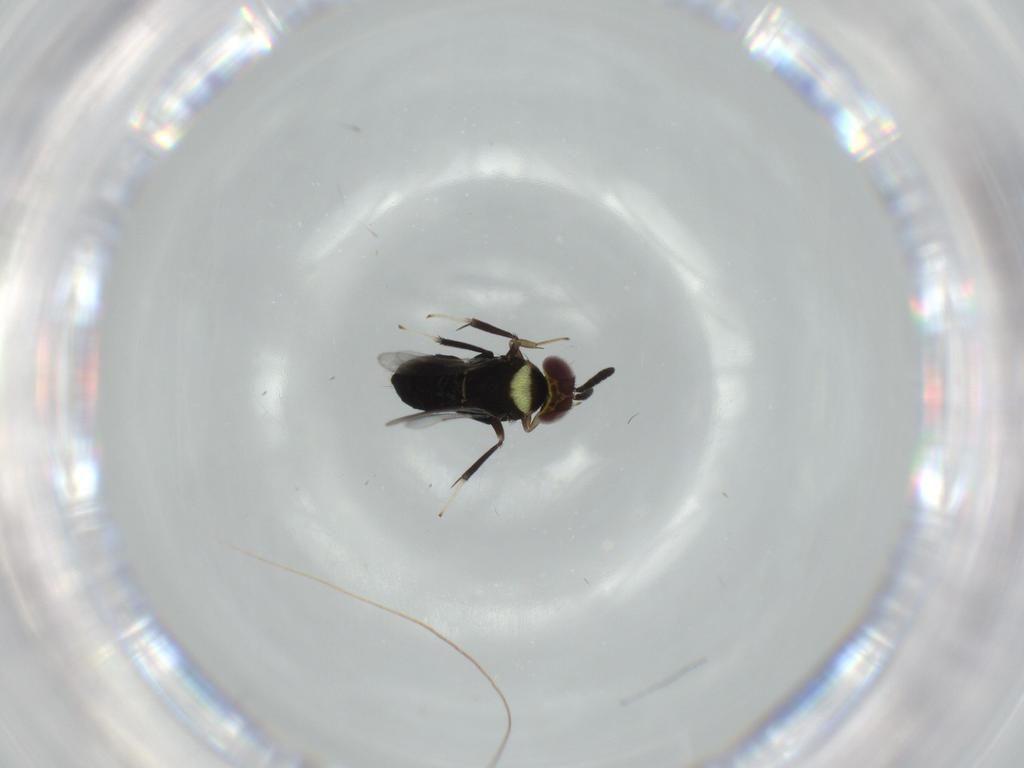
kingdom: Animalia
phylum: Arthropoda
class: Insecta
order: Hymenoptera
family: Aphelinidae
